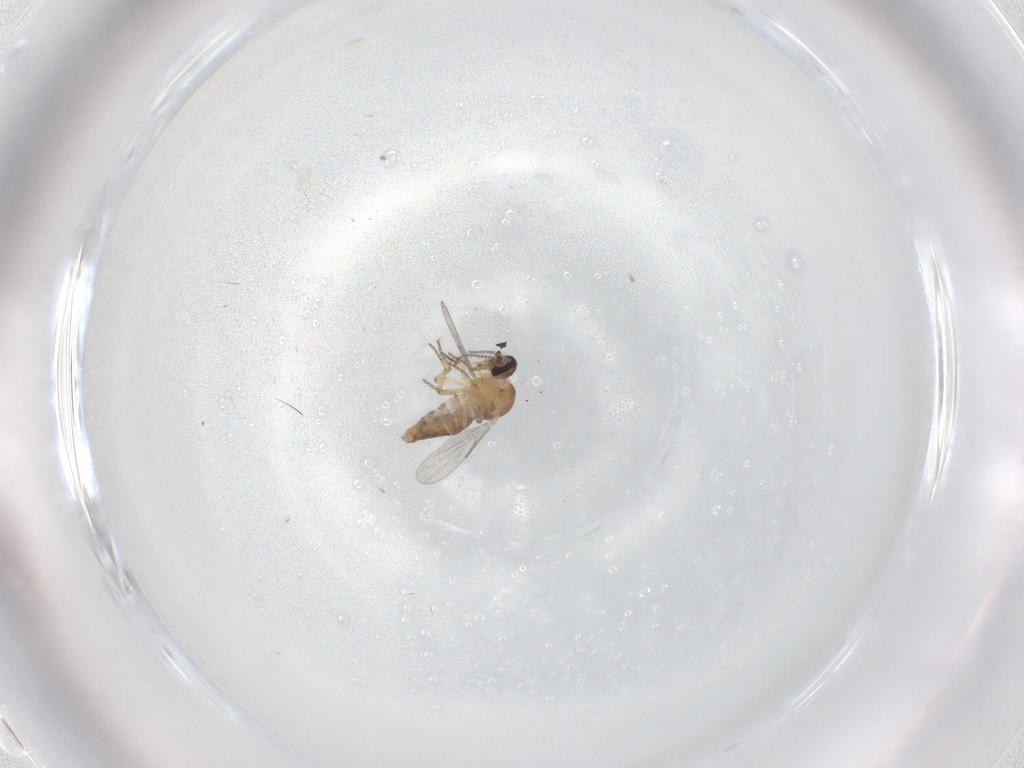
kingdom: Animalia
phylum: Arthropoda
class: Insecta
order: Diptera
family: Ceratopogonidae
